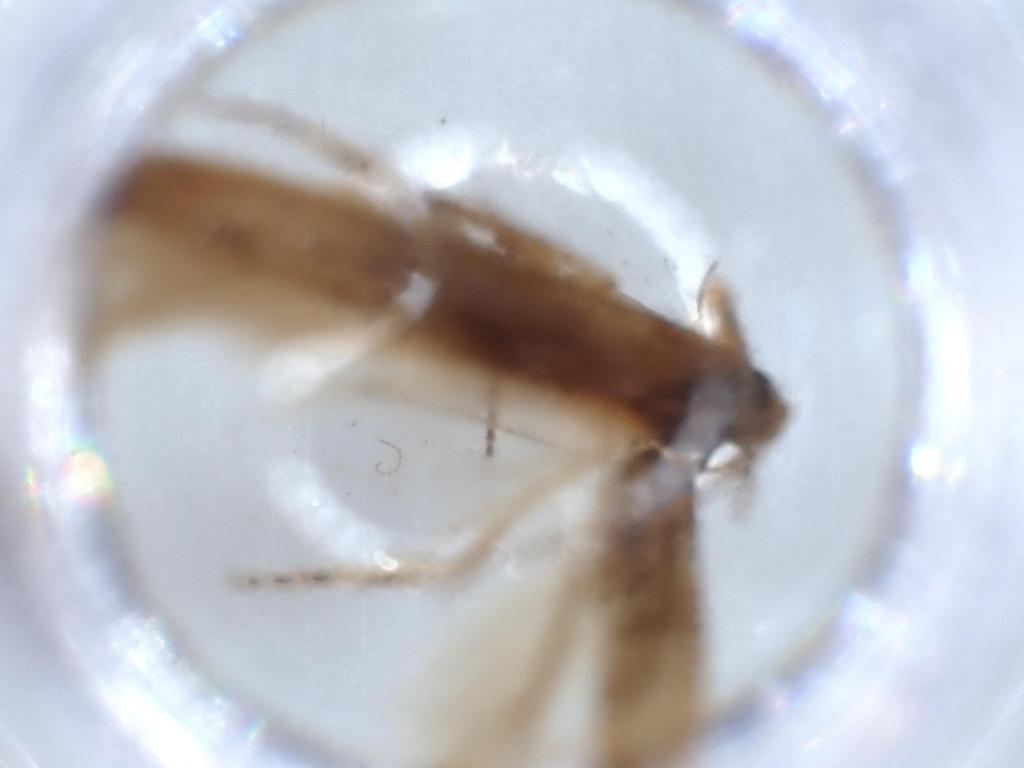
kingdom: Animalia
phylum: Arthropoda
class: Insecta
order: Lepidoptera
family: Stathmopodidae
